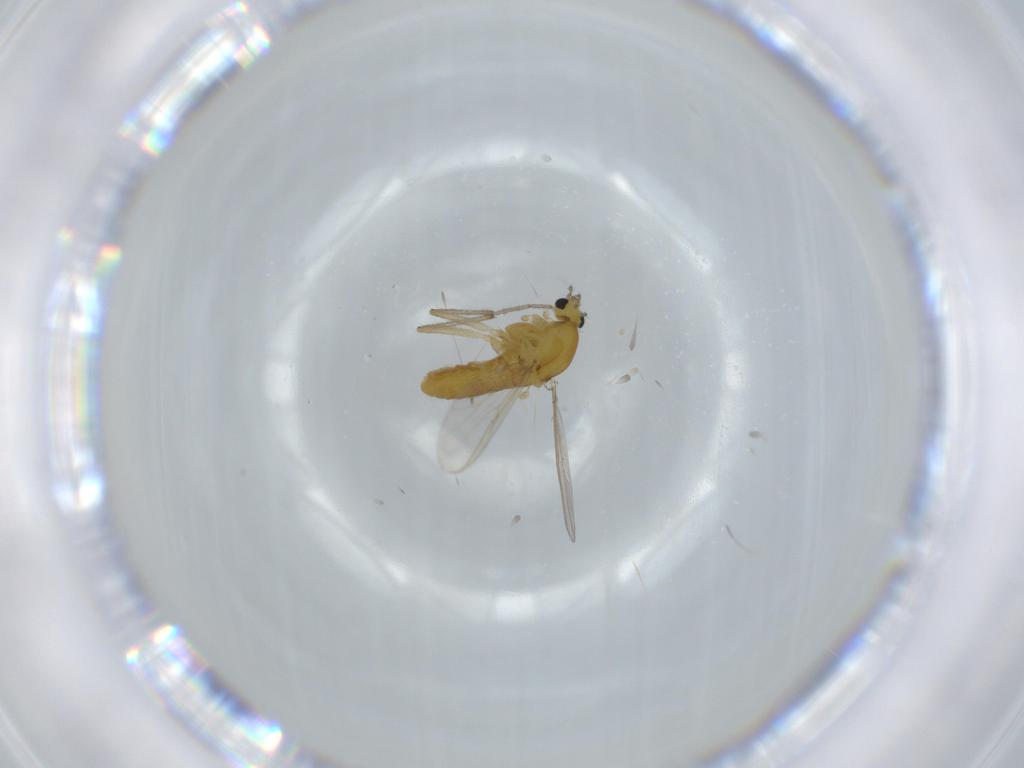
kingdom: Animalia
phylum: Arthropoda
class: Insecta
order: Diptera
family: Chironomidae
